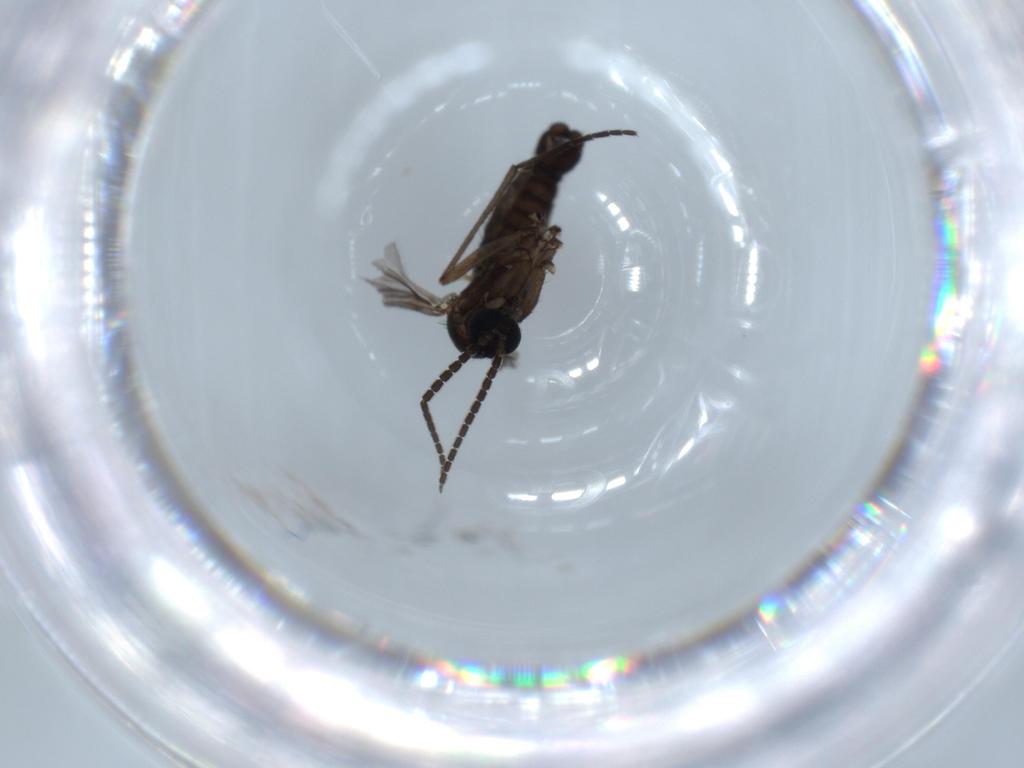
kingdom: Animalia
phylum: Arthropoda
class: Insecta
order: Diptera
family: Sciaridae
